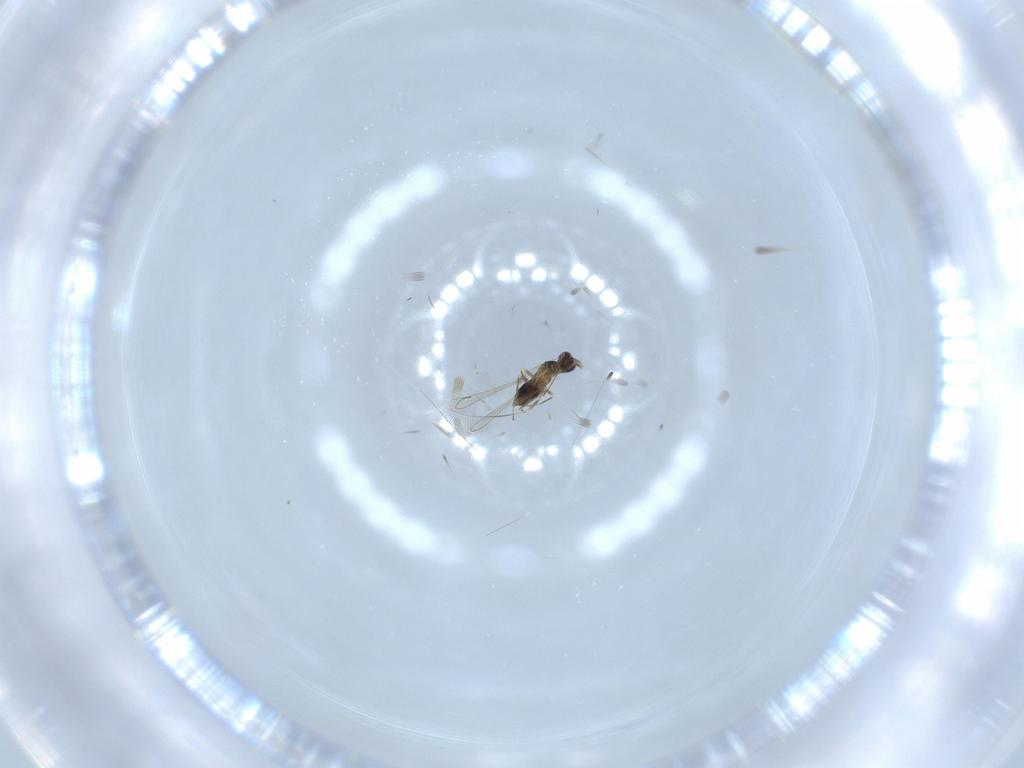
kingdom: Animalia
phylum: Arthropoda
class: Insecta
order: Hymenoptera
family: Mymaridae
